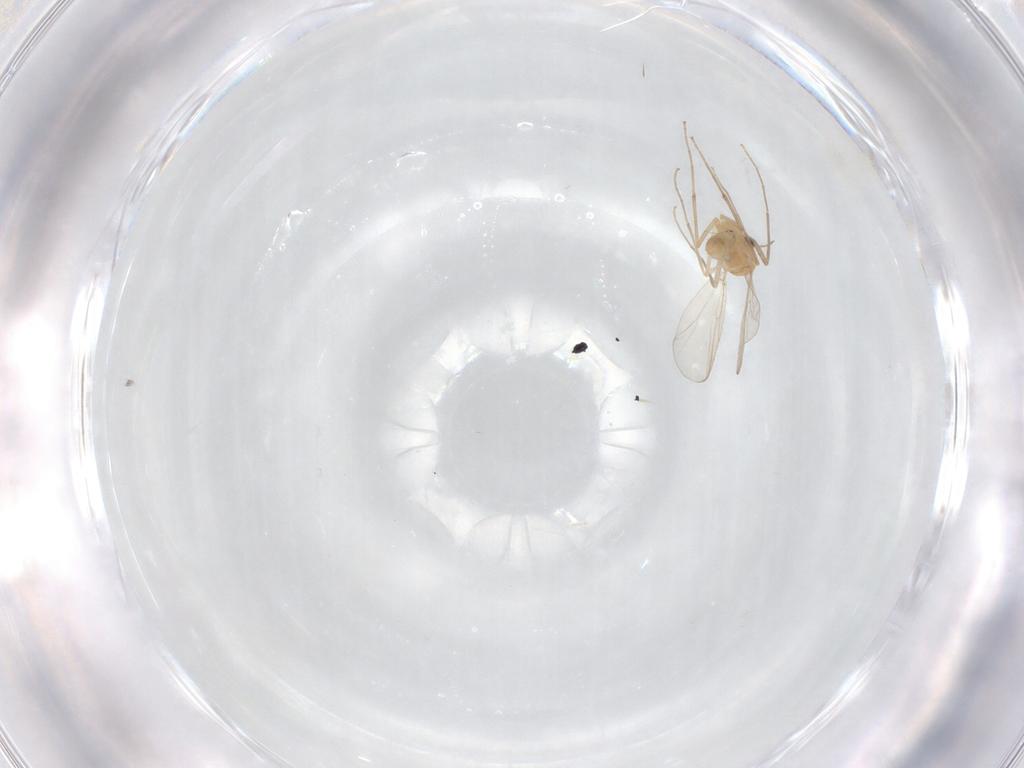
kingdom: Animalia
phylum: Arthropoda
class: Insecta
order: Diptera
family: Chironomidae
